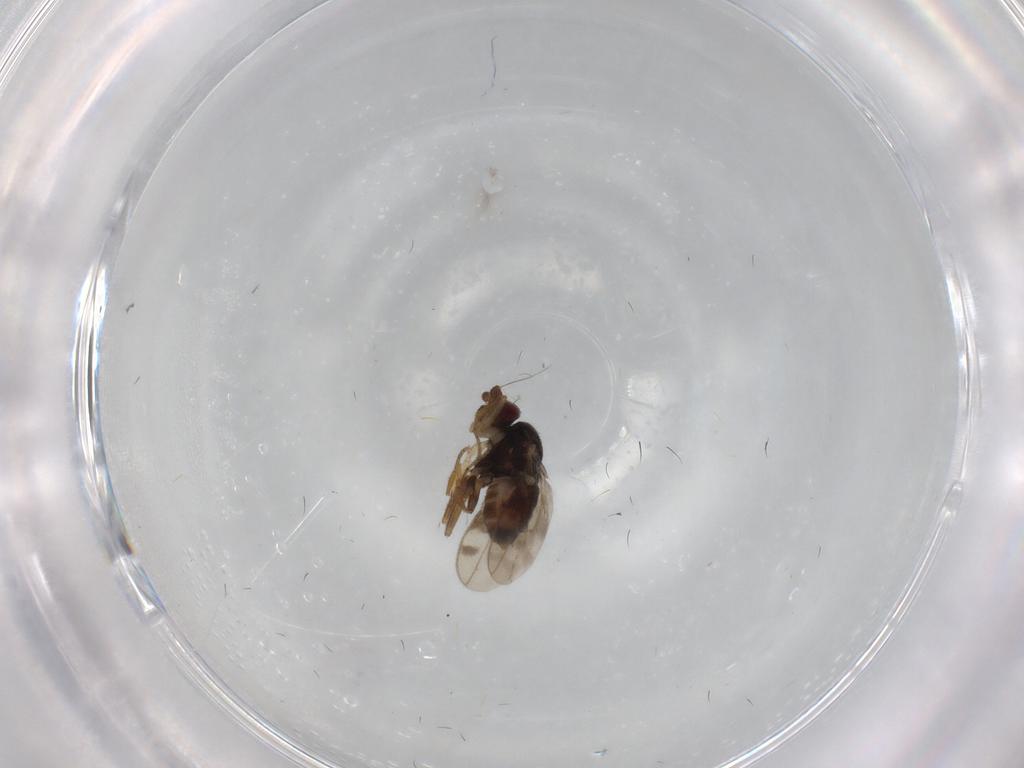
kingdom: Animalia
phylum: Arthropoda
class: Insecta
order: Diptera
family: Sphaeroceridae
